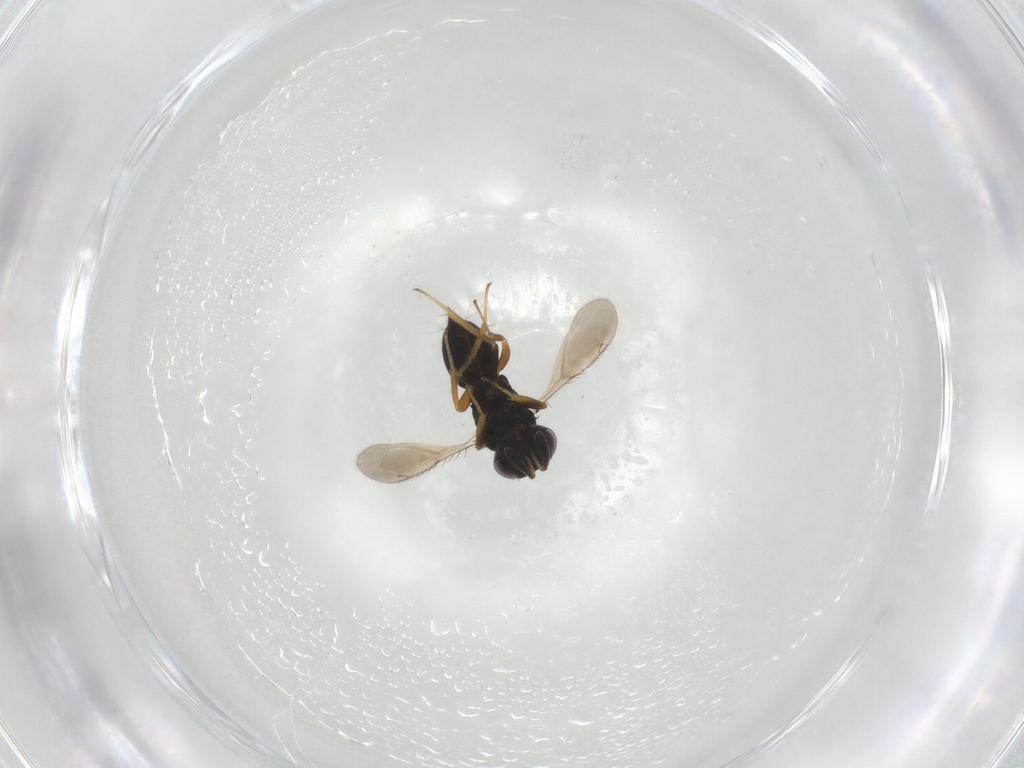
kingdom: Animalia
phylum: Arthropoda
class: Insecta
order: Hymenoptera
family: Diparidae
